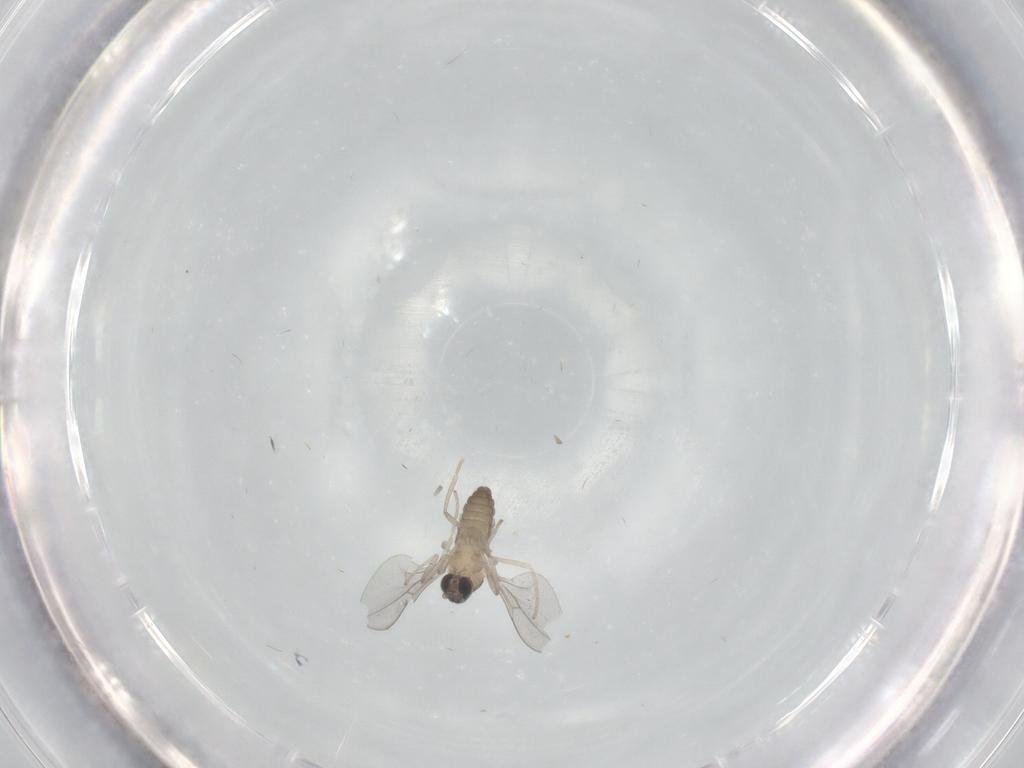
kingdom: Animalia
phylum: Arthropoda
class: Insecta
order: Diptera
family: Cecidomyiidae
